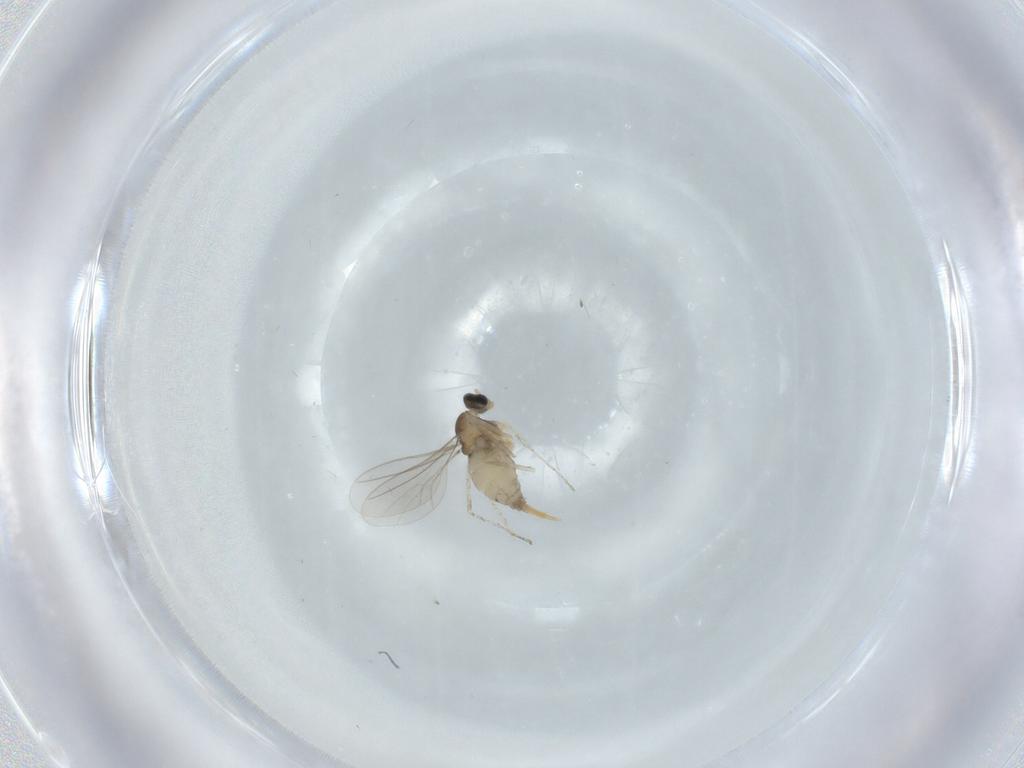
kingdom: Animalia
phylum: Arthropoda
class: Insecta
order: Diptera
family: Cecidomyiidae
